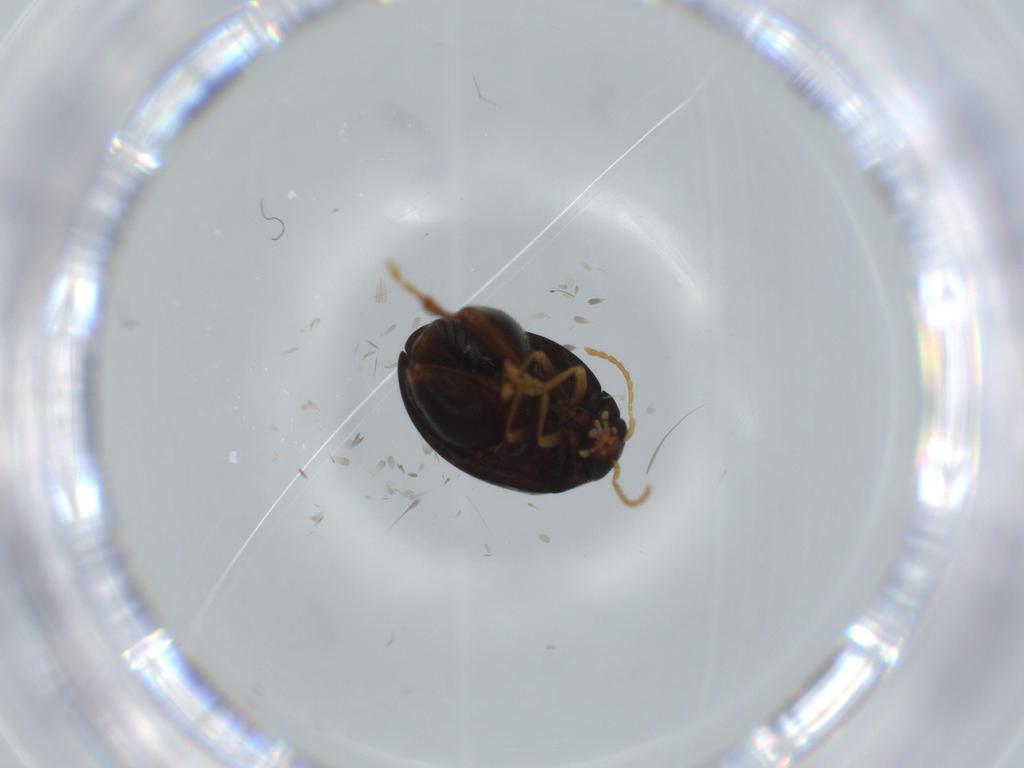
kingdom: Animalia
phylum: Arthropoda
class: Insecta
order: Coleoptera
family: Chrysomelidae
